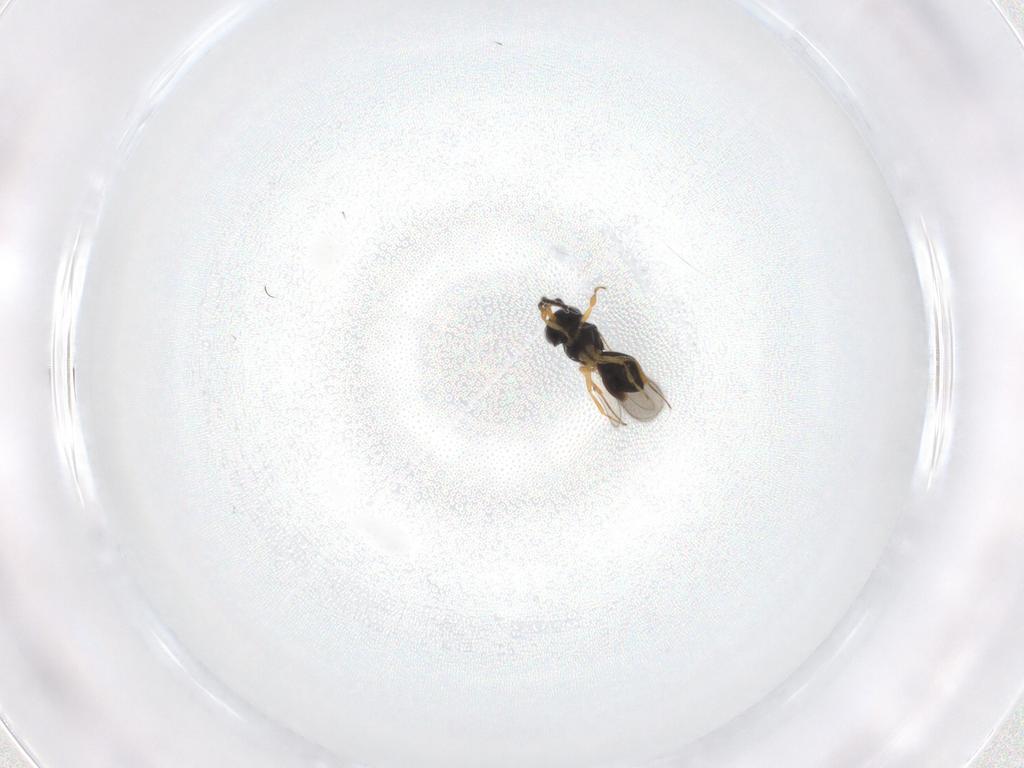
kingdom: Animalia
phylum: Arthropoda
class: Insecta
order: Hymenoptera
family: Scelionidae
